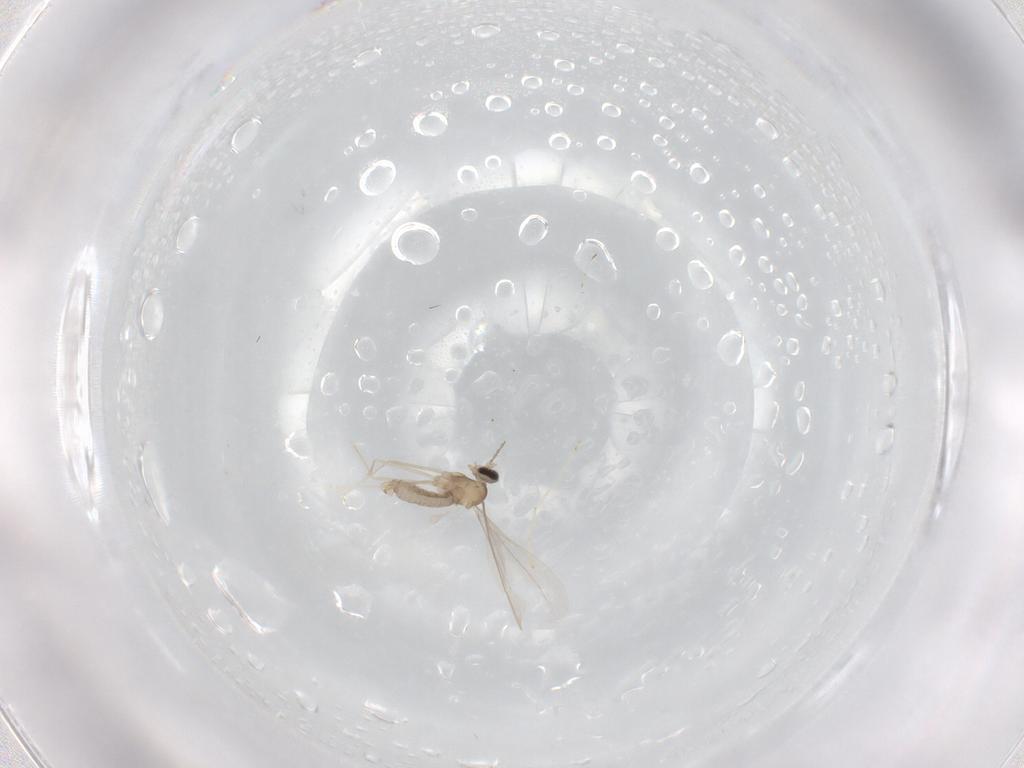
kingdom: Animalia
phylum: Arthropoda
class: Insecta
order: Diptera
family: Cecidomyiidae
